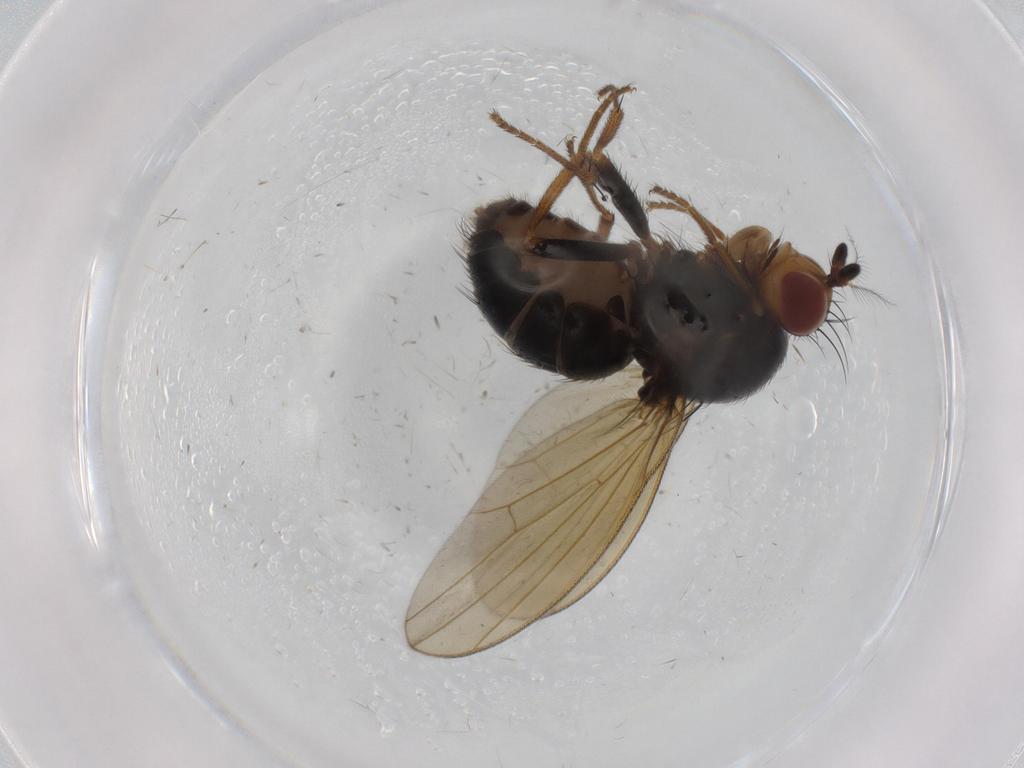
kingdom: Animalia
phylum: Arthropoda
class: Insecta
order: Diptera
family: Lauxaniidae
